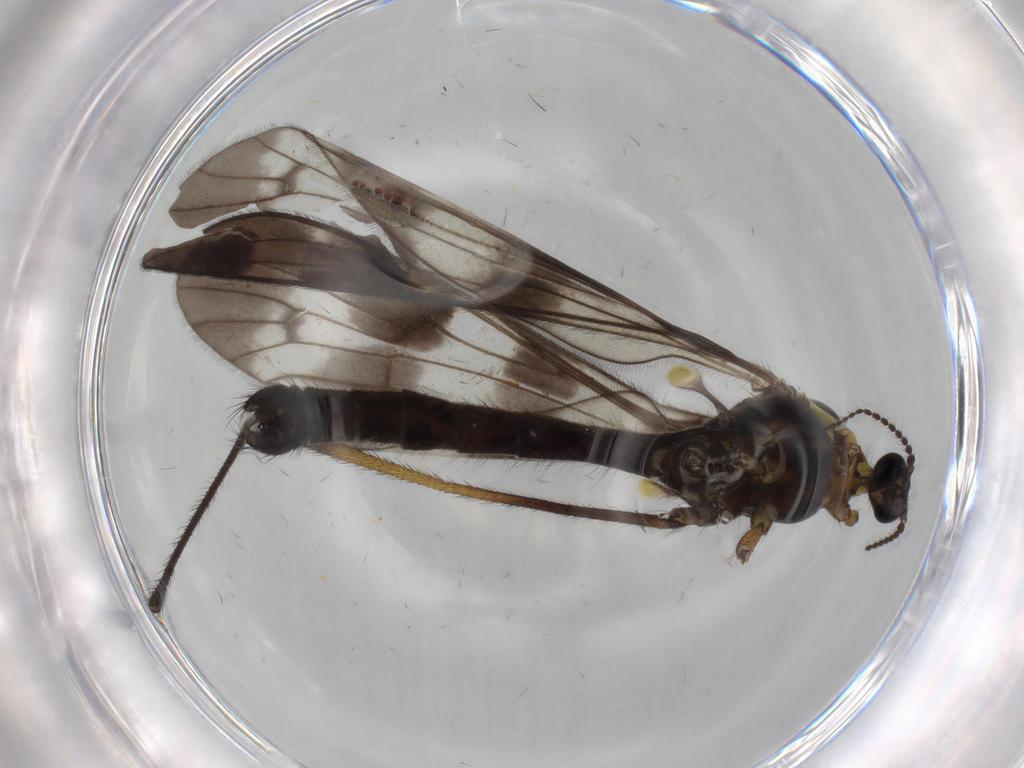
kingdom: Animalia
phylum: Arthropoda
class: Insecta
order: Diptera
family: Limoniidae
